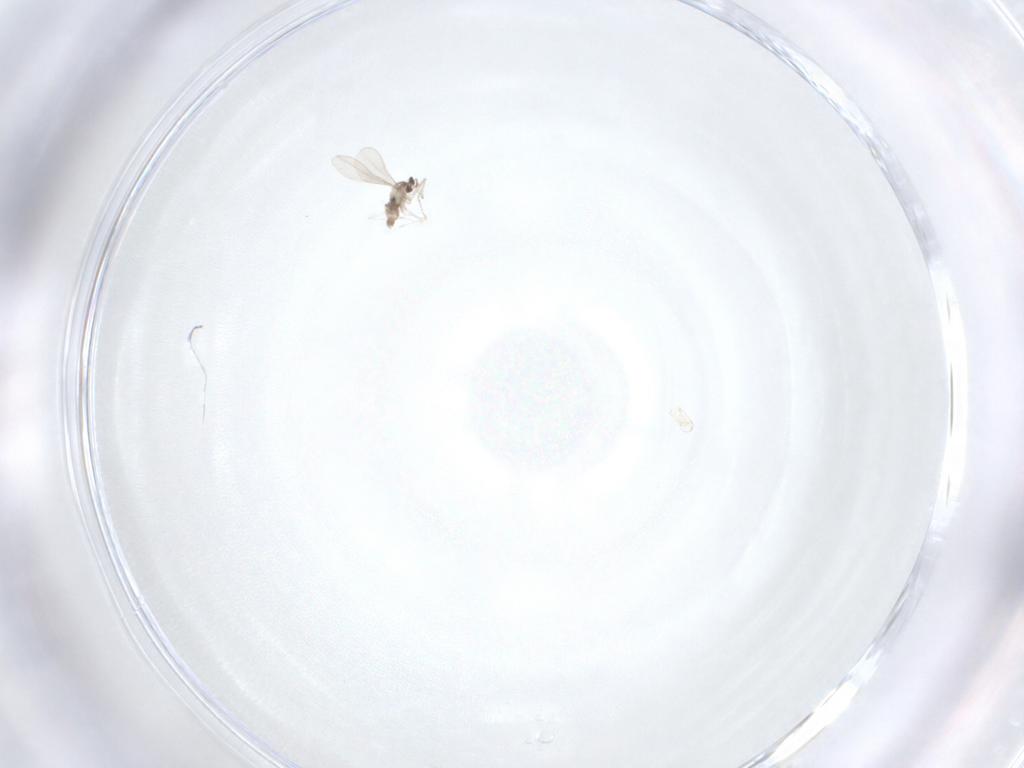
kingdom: Animalia
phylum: Arthropoda
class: Insecta
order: Diptera
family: Cecidomyiidae
